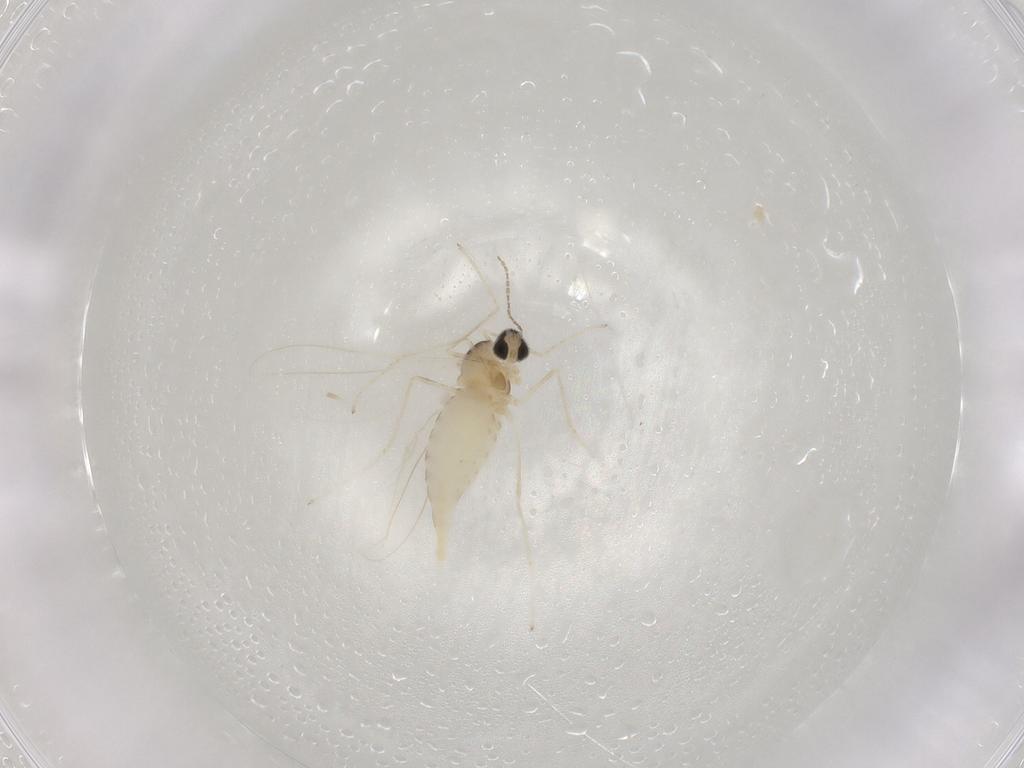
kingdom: Animalia
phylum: Arthropoda
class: Insecta
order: Diptera
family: Cecidomyiidae
